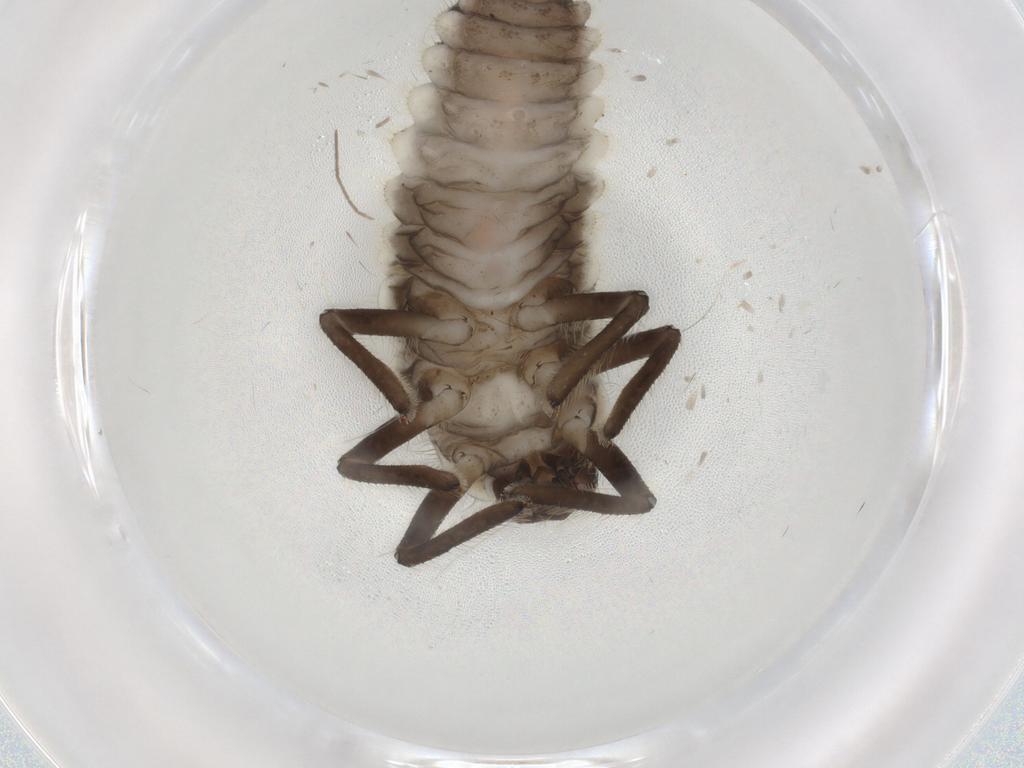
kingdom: Animalia
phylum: Arthropoda
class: Insecta
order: Coleoptera
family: Coccinellidae
